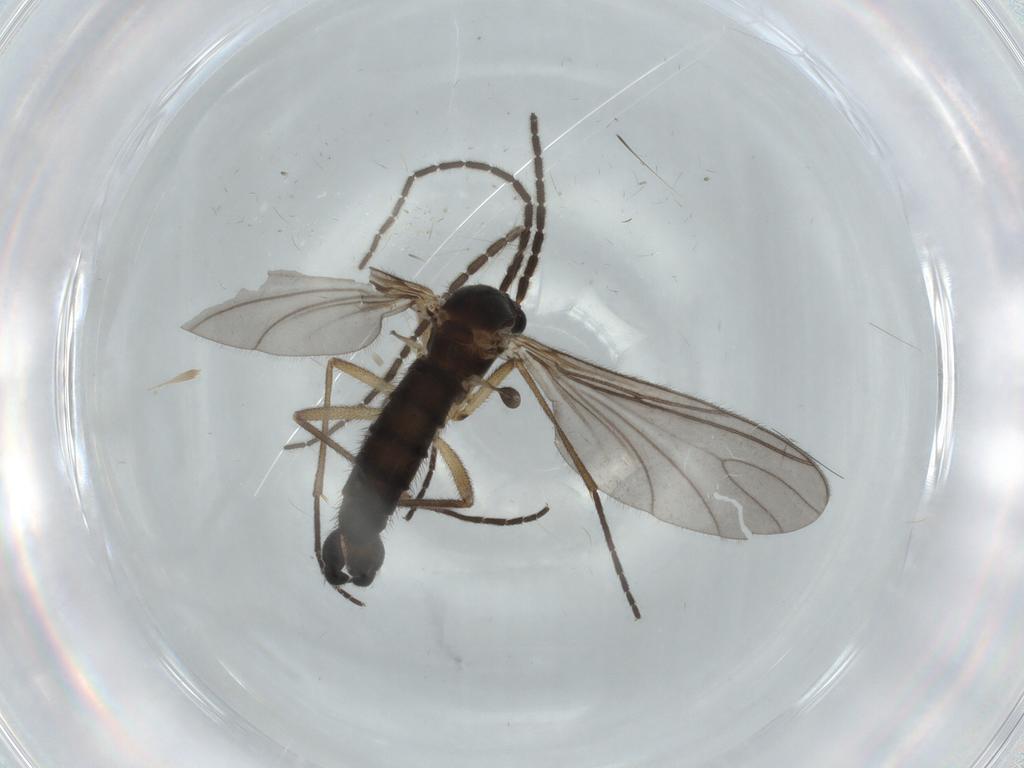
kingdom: Animalia
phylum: Arthropoda
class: Insecta
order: Diptera
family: Sciaridae
